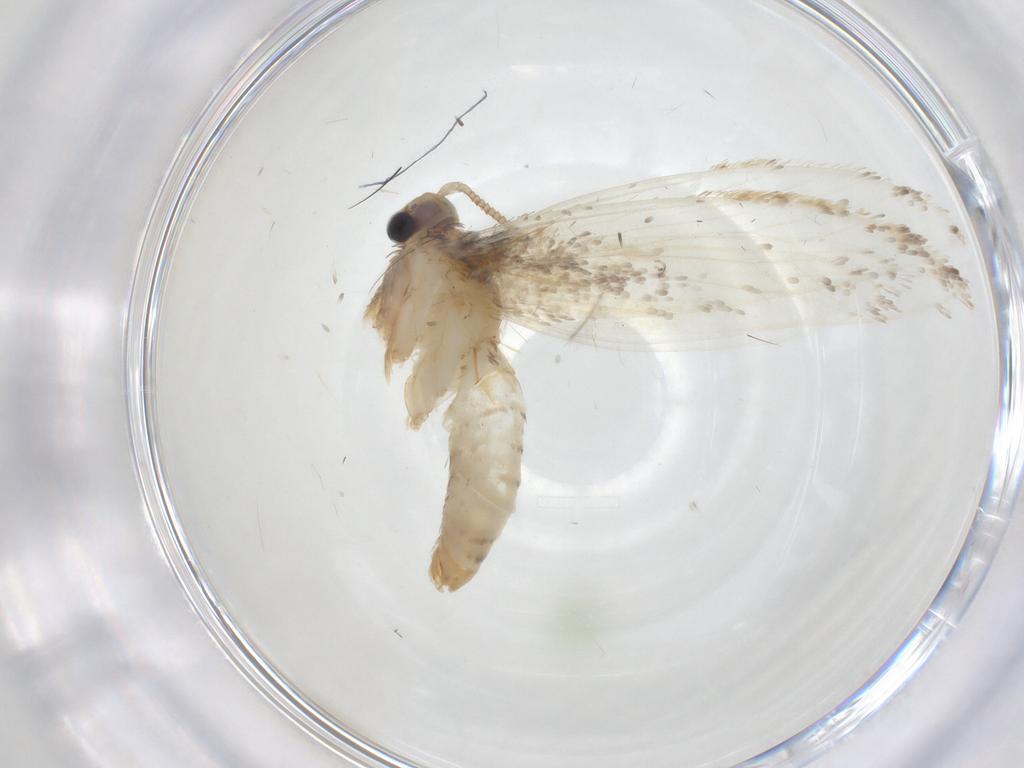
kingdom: Animalia
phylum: Arthropoda
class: Insecta
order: Lepidoptera
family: Tineidae
